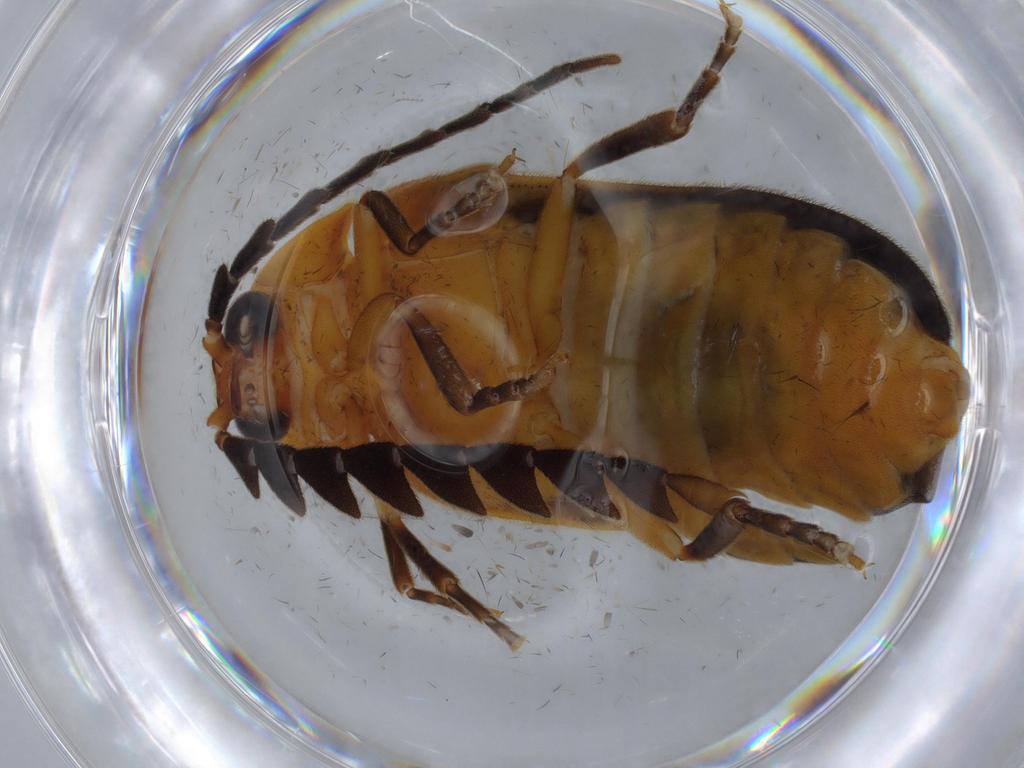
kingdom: Animalia
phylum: Arthropoda
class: Insecta
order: Coleoptera
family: Lampyridae
